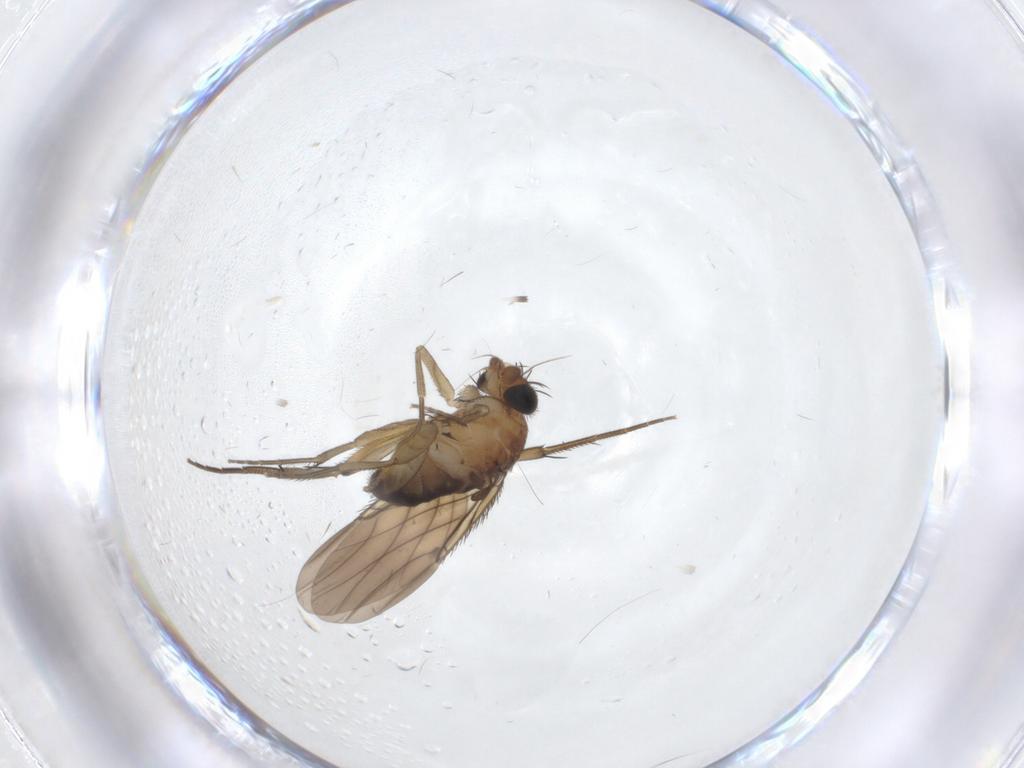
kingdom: Animalia
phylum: Arthropoda
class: Insecta
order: Diptera
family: Phoridae
